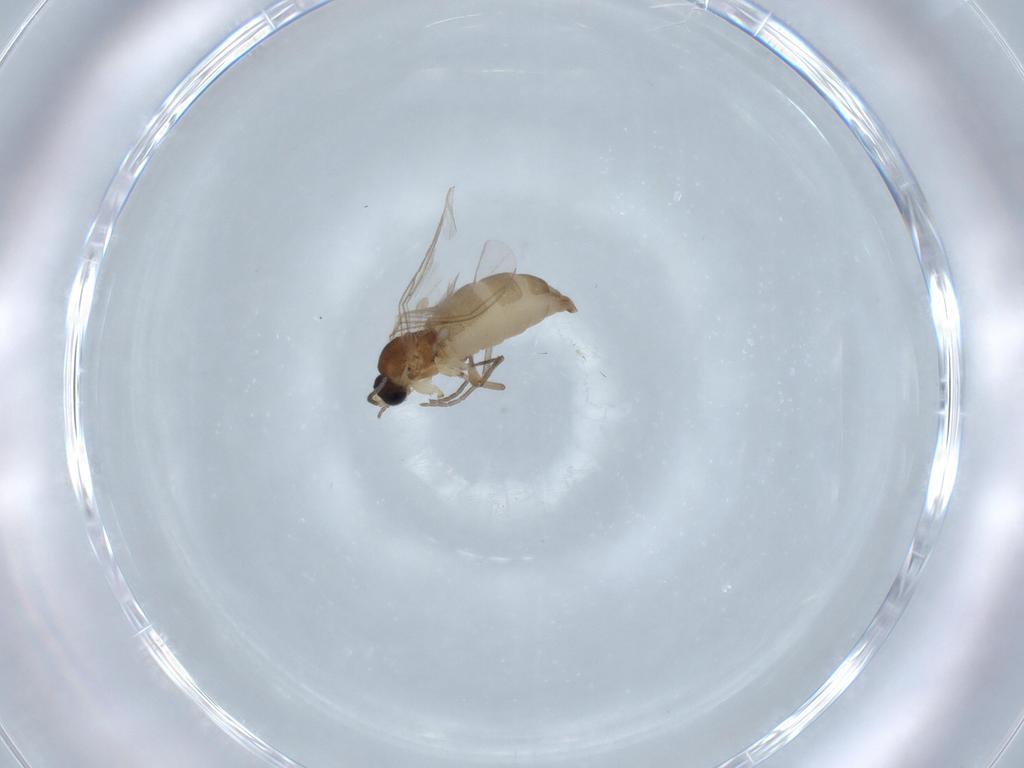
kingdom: Animalia
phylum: Arthropoda
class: Insecta
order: Diptera
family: Sciaridae
